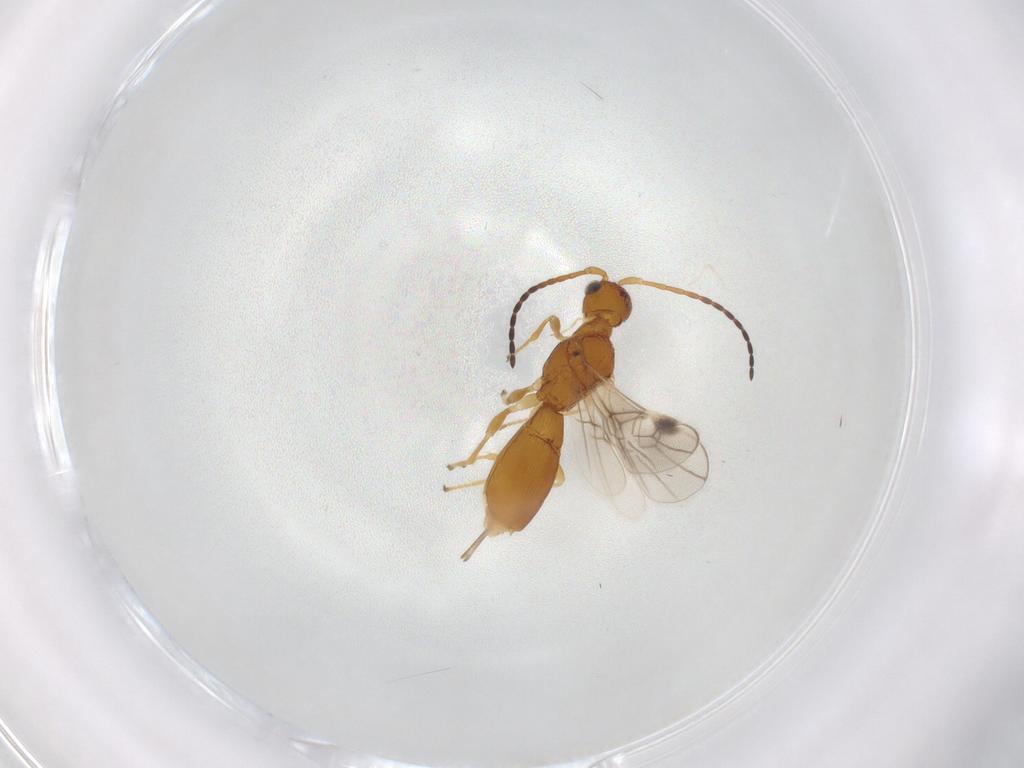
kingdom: Animalia
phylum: Arthropoda
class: Insecta
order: Hymenoptera
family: Braconidae
